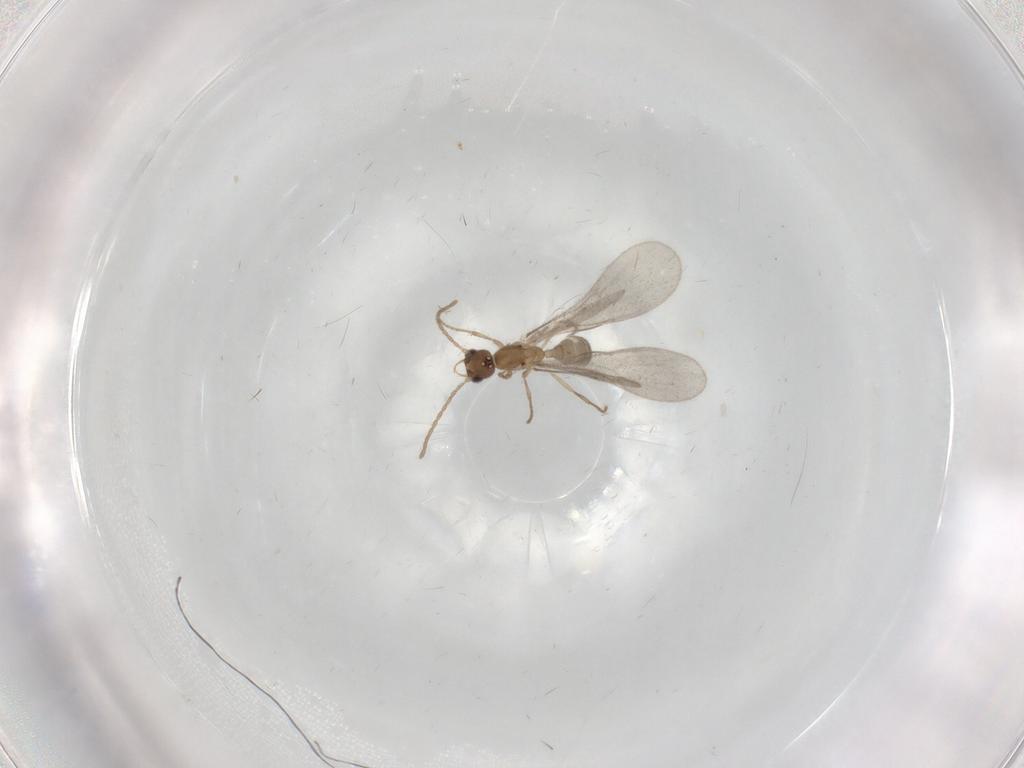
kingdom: Animalia
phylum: Arthropoda
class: Insecta
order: Hymenoptera
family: Formicidae
